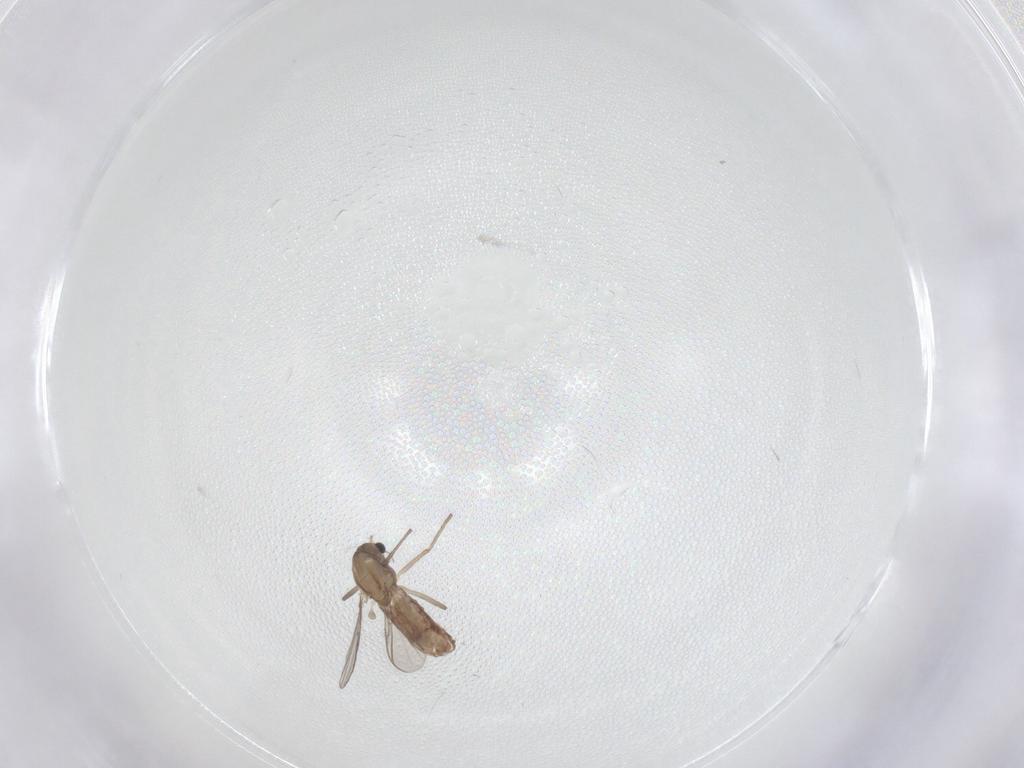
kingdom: Animalia
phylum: Arthropoda
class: Insecta
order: Diptera
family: Chironomidae
